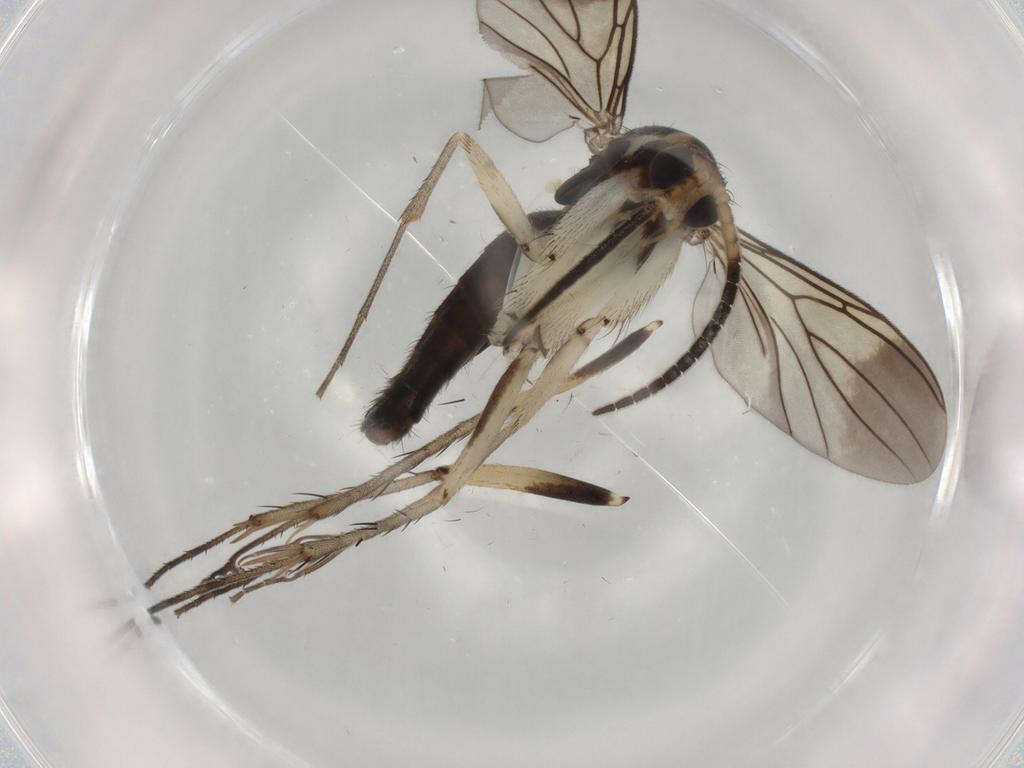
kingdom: Animalia
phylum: Arthropoda
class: Insecta
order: Diptera
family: Mycetophilidae
